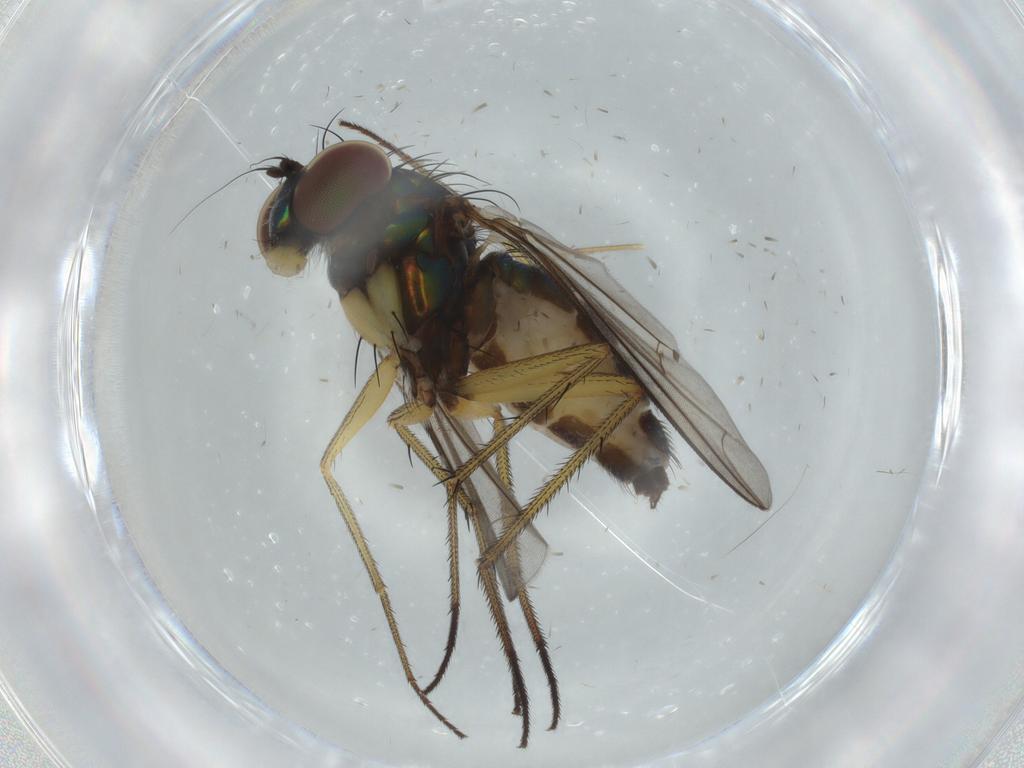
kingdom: Animalia
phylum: Arthropoda
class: Insecta
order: Diptera
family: Dolichopodidae
